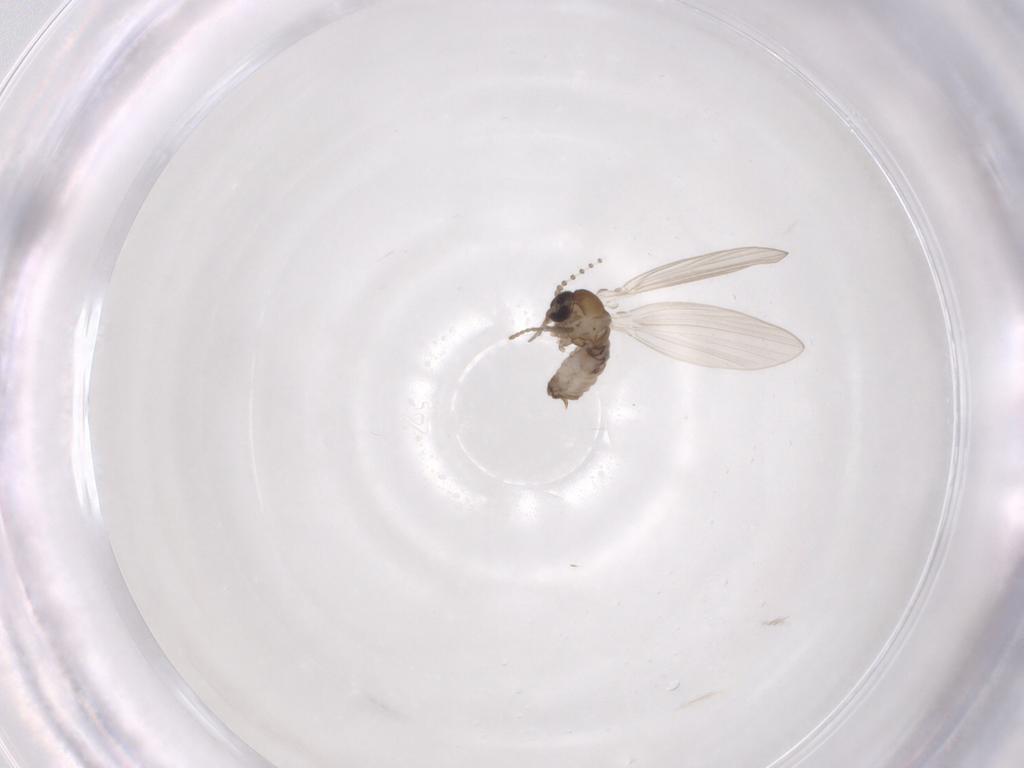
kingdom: Animalia
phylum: Arthropoda
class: Insecta
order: Diptera
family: Psychodidae
